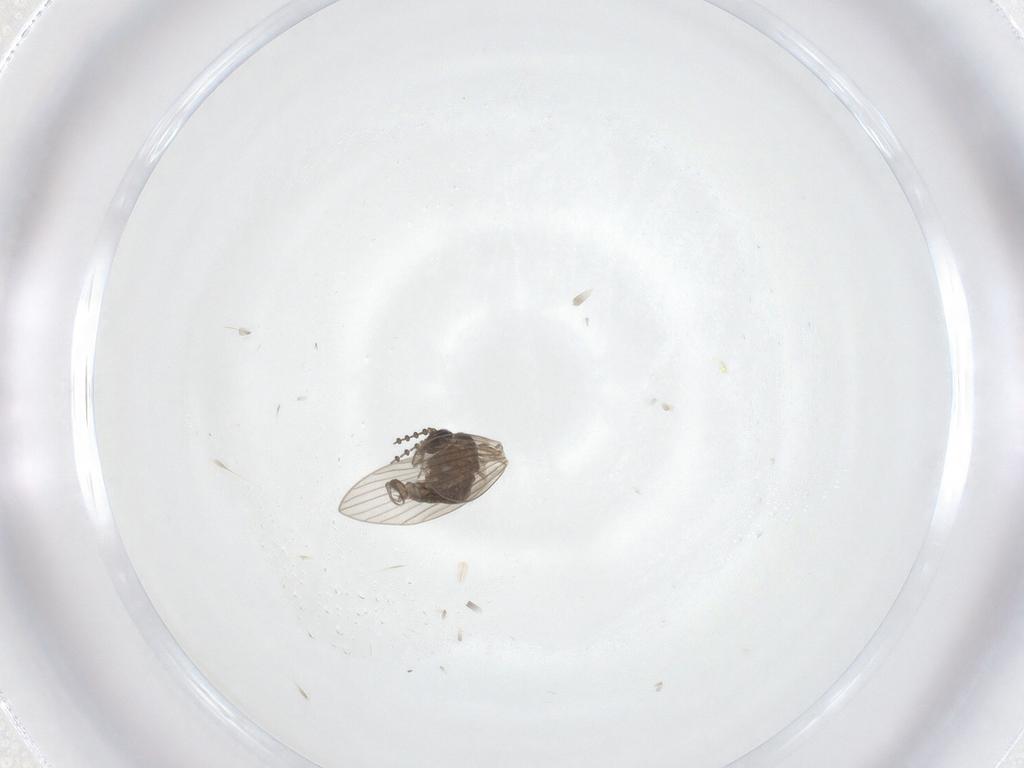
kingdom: Animalia
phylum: Arthropoda
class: Insecta
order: Diptera
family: Psychodidae
